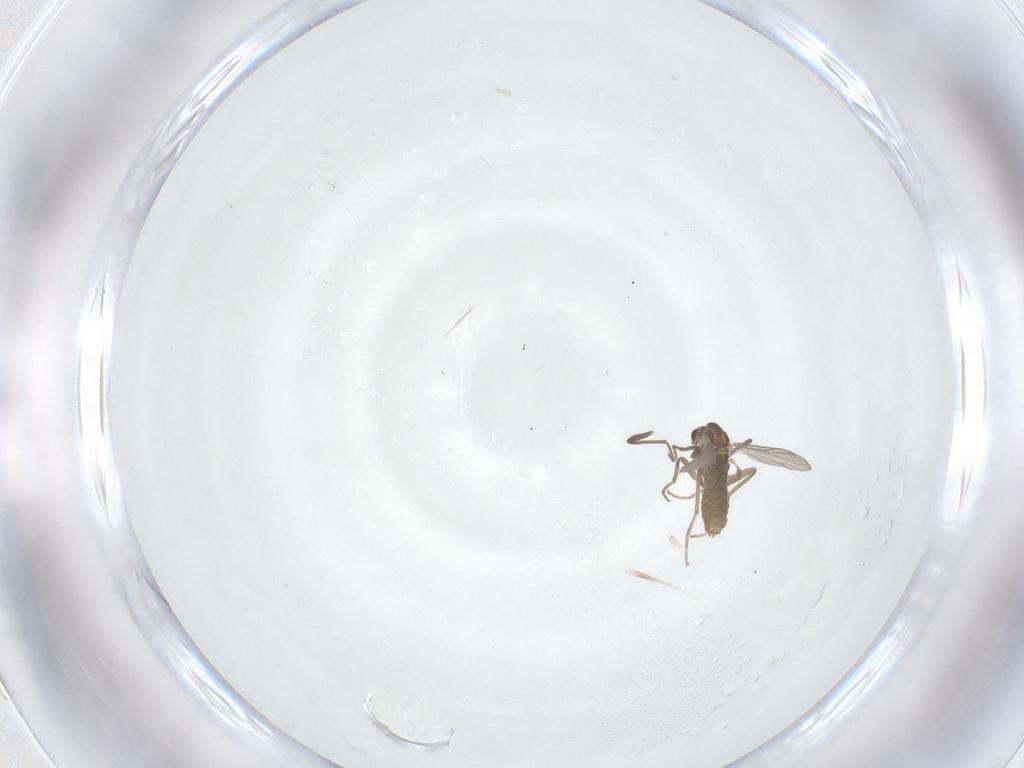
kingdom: Animalia
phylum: Arthropoda
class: Insecta
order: Diptera
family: Chironomidae
